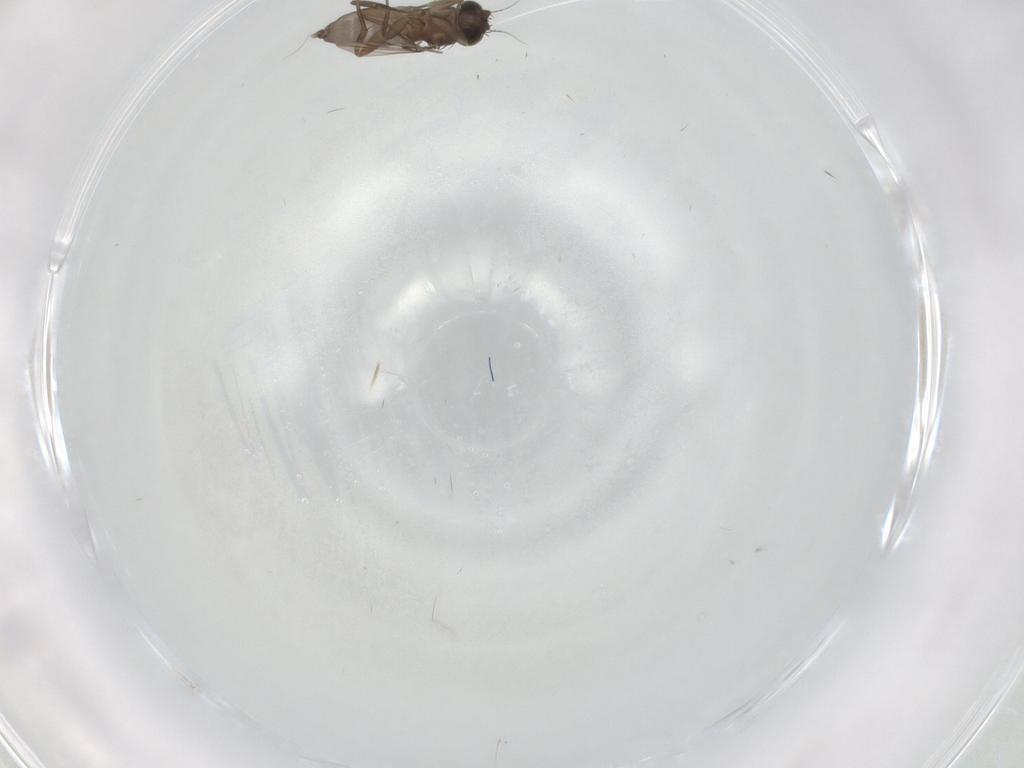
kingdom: Animalia
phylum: Arthropoda
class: Insecta
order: Diptera
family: Phoridae
